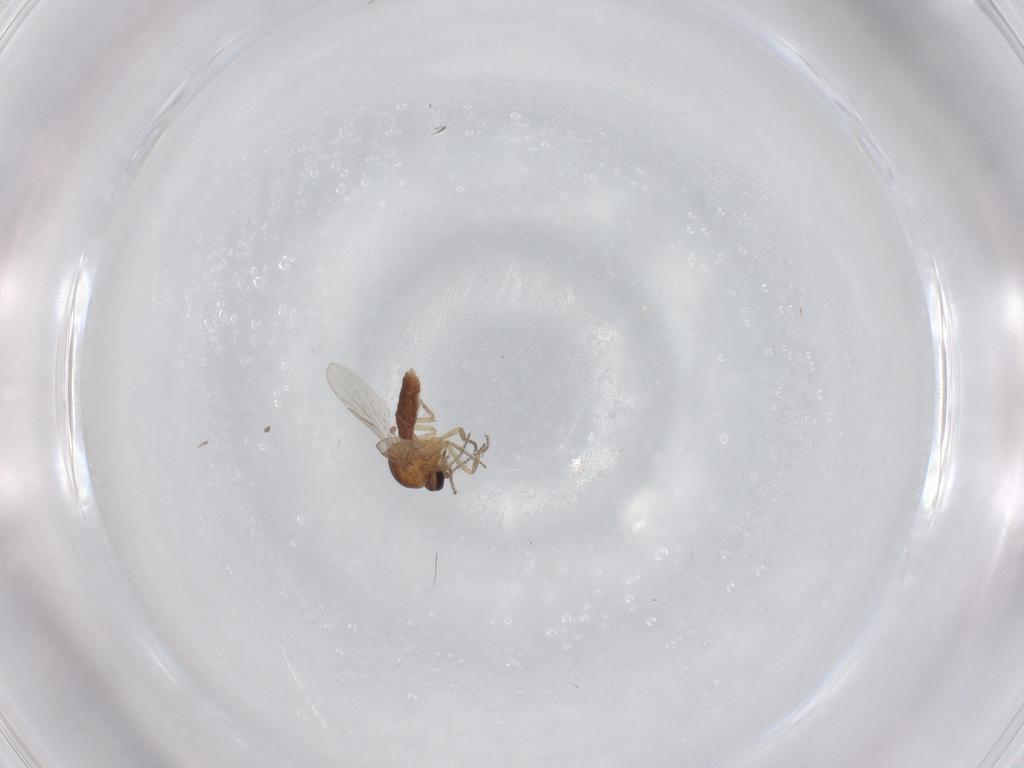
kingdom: Animalia
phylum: Arthropoda
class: Insecta
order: Diptera
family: Ceratopogonidae
